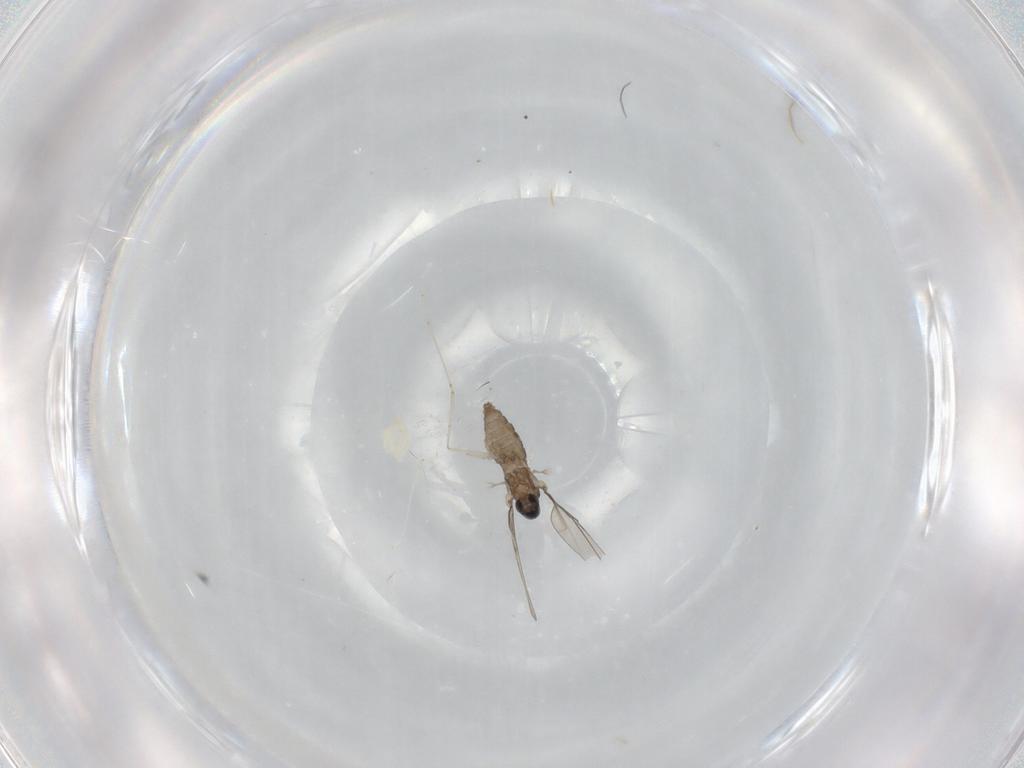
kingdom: Animalia
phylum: Arthropoda
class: Insecta
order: Diptera
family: Cecidomyiidae
